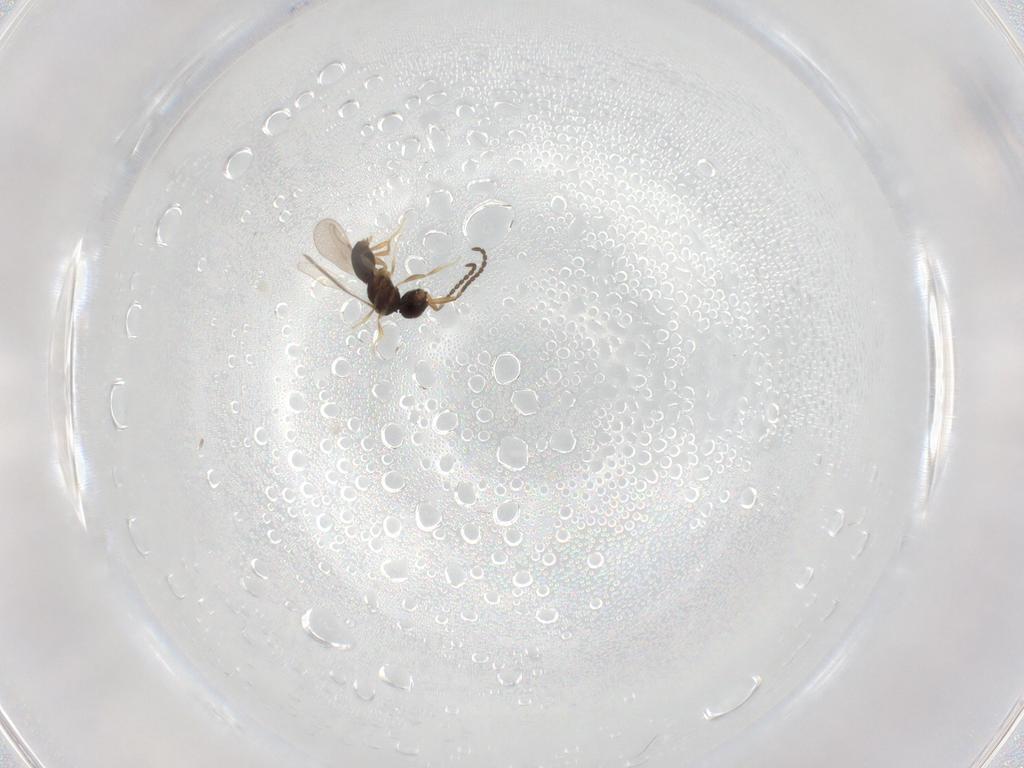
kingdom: Animalia
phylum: Arthropoda
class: Insecta
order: Hymenoptera
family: Trichogrammatidae
